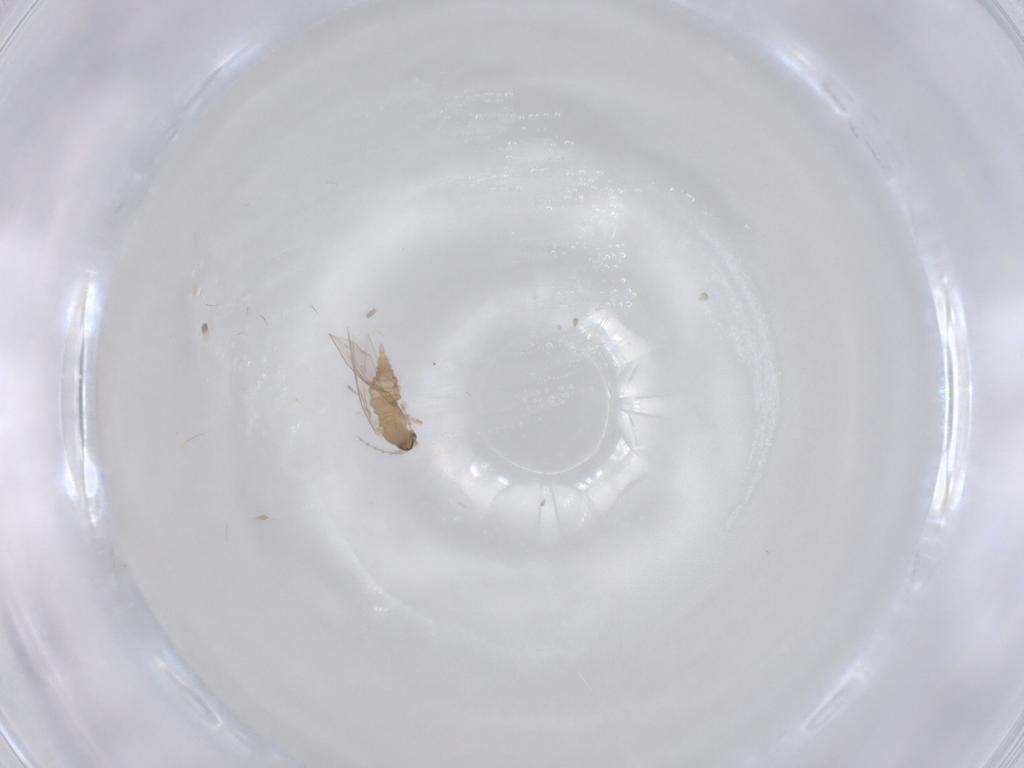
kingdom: Animalia
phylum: Arthropoda
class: Insecta
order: Diptera
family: Cecidomyiidae
